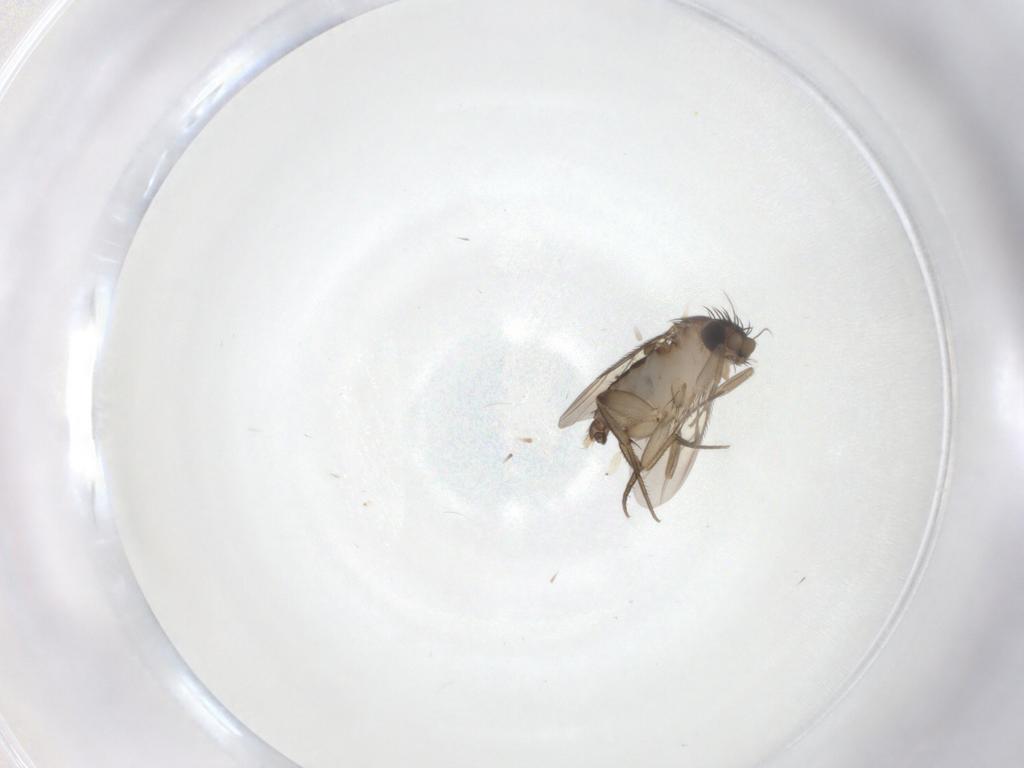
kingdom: Animalia
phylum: Arthropoda
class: Insecta
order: Diptera
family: Phoridae
